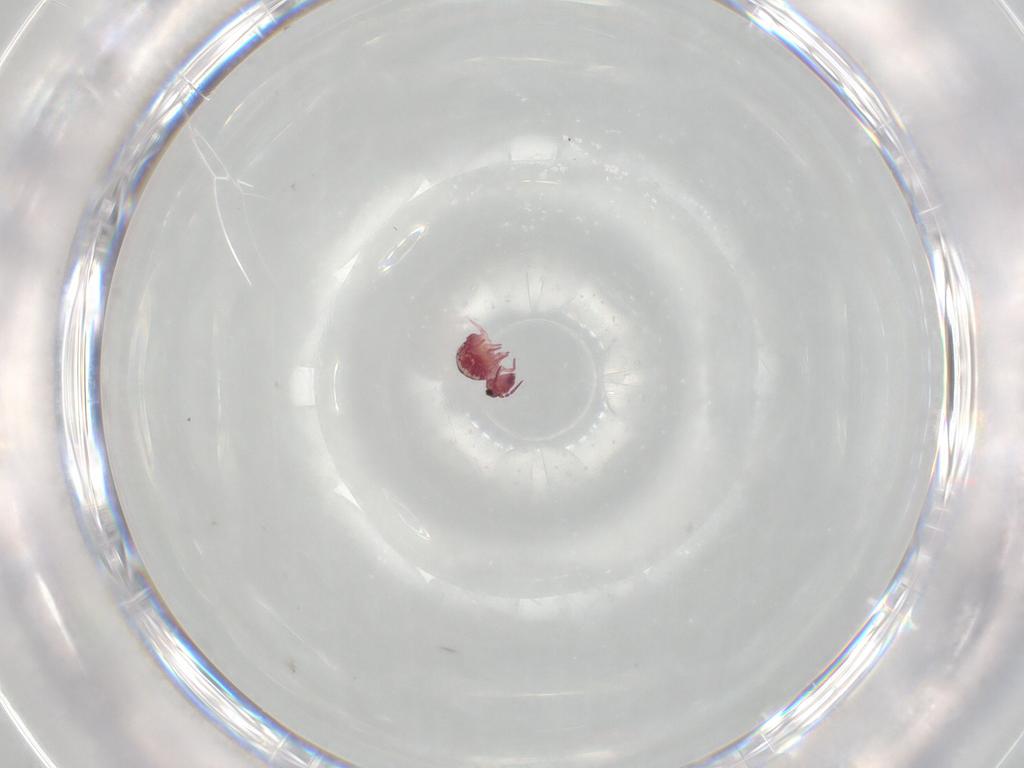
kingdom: Animalia
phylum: Arthropoda
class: Collembola
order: Symphypleona
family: Sminthurididae
